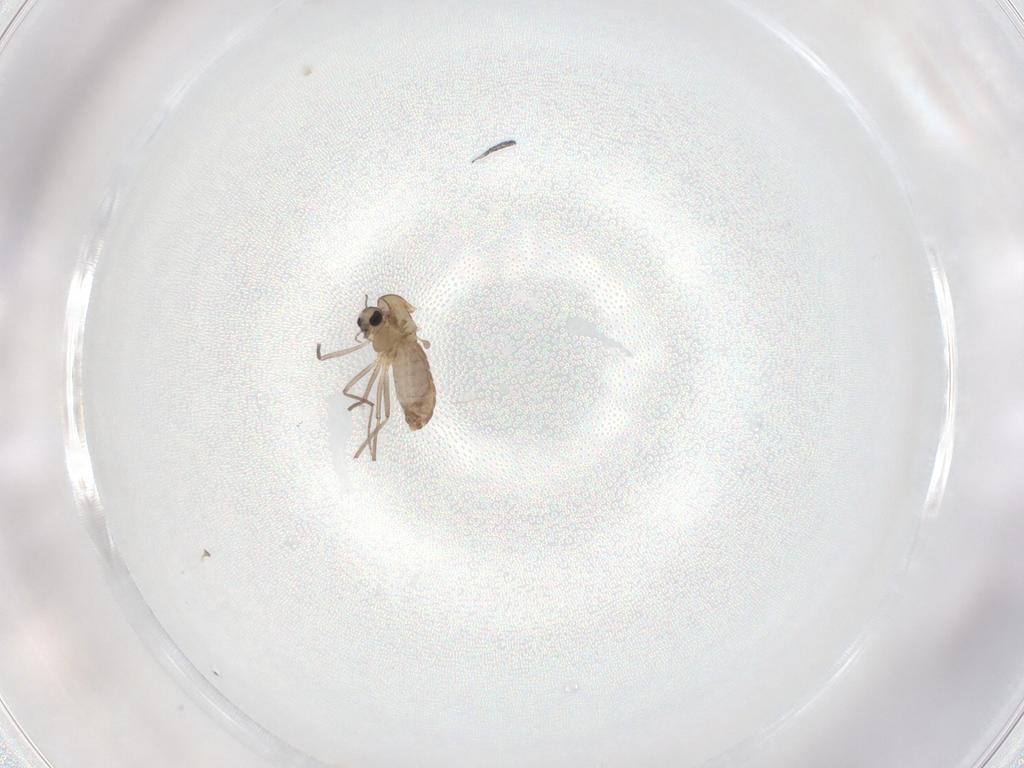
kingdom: Animalia
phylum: Arthropoda
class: Insecta
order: Diptera
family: Chironomidae
